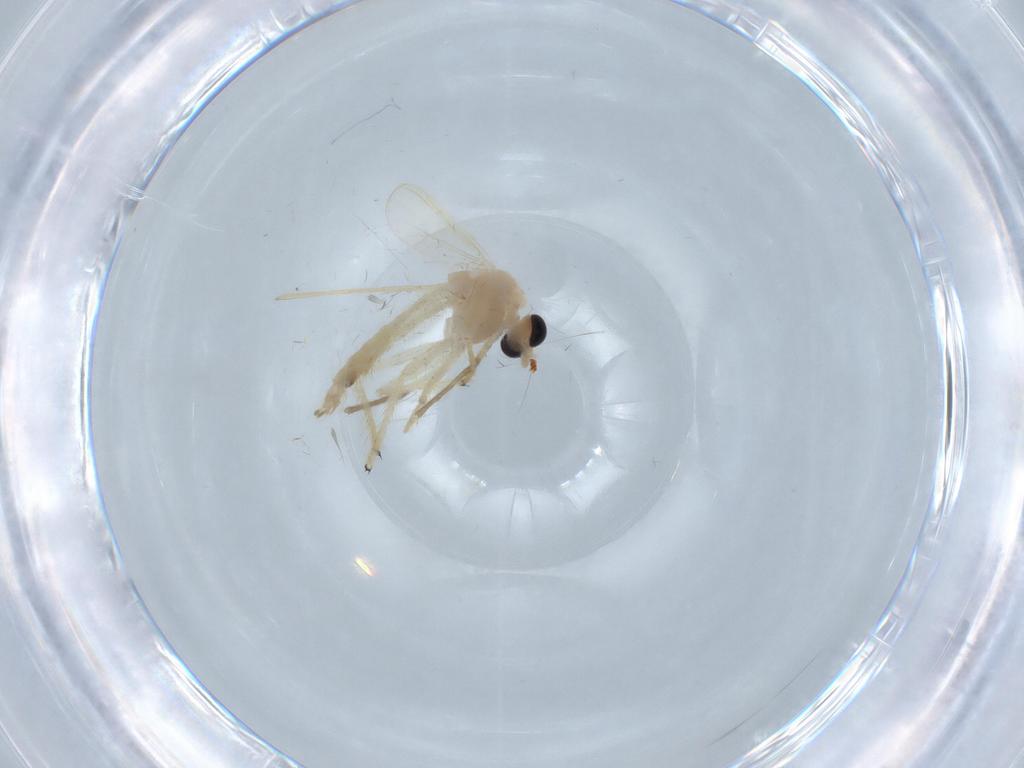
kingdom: Animalia
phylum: Arthropoda
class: Insecta
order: Diptera
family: Chironomidae
